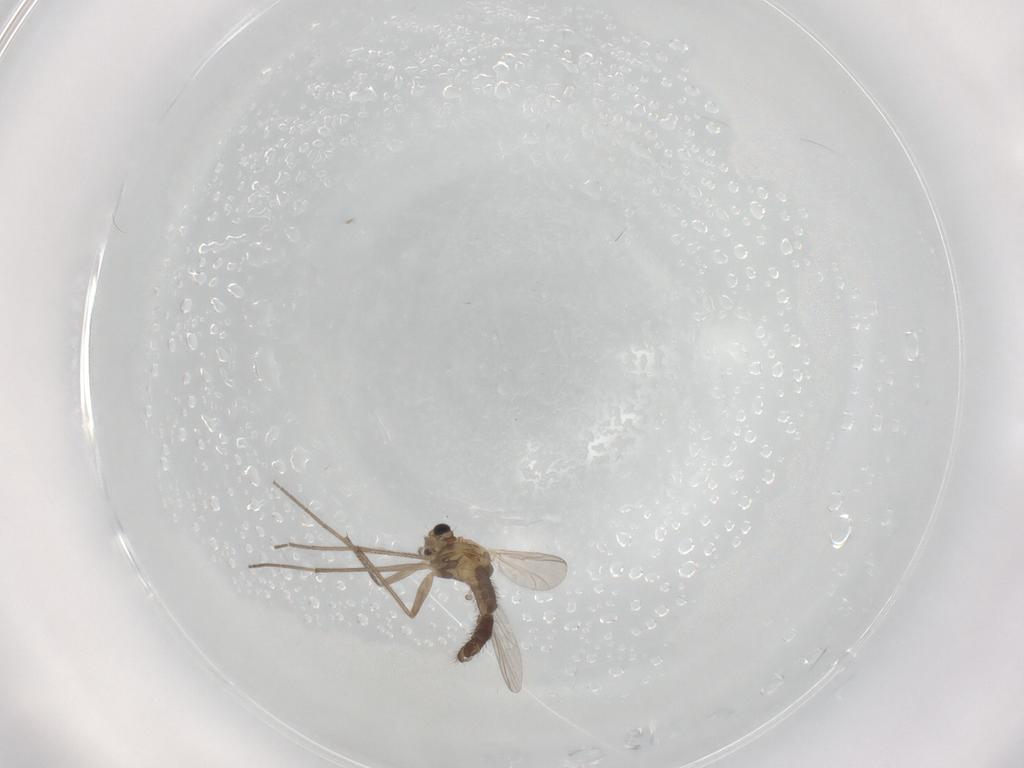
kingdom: Animalia
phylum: Arthropoda
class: Insecta
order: Diptera
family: Chironomidae
